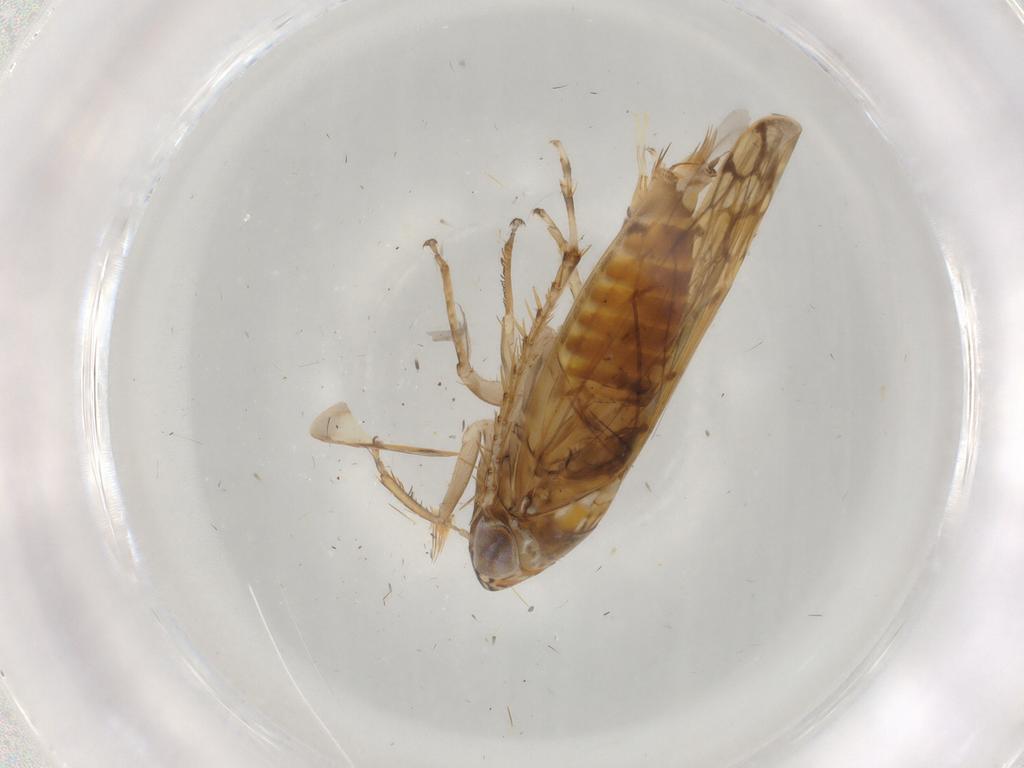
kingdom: Animalia
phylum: Arthropoda
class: Insecta
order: Hemiptera
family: Cicadellidae
